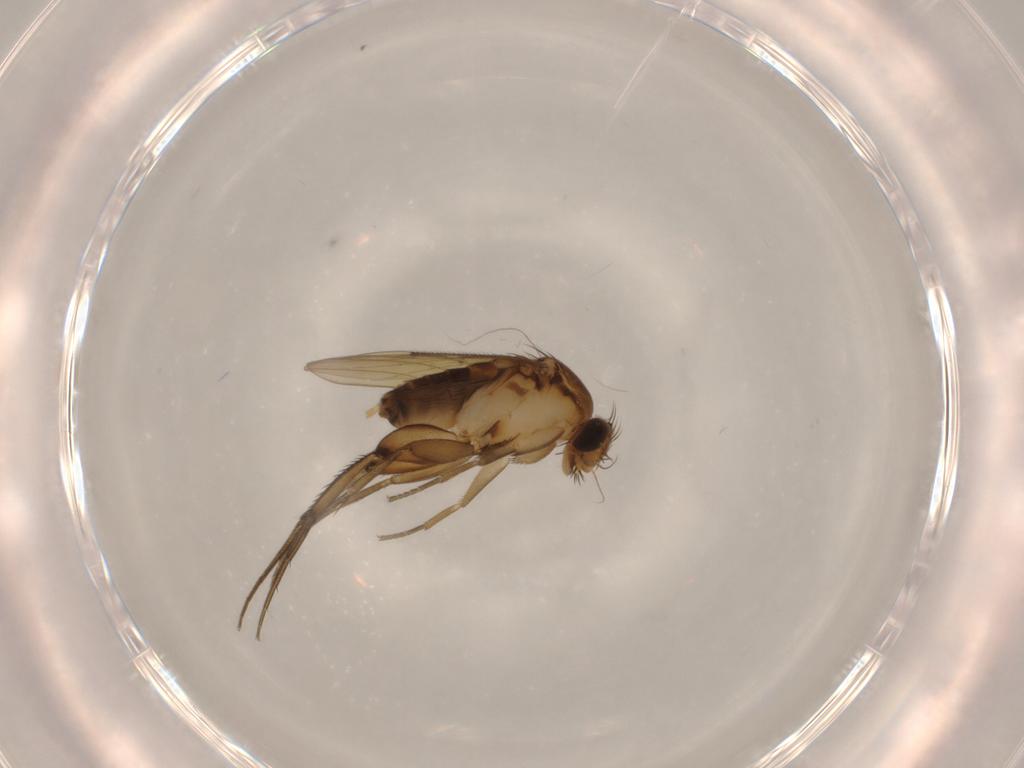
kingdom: Animalia
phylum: Arthropoda
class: Insecta
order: Diptera
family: Phoridae
